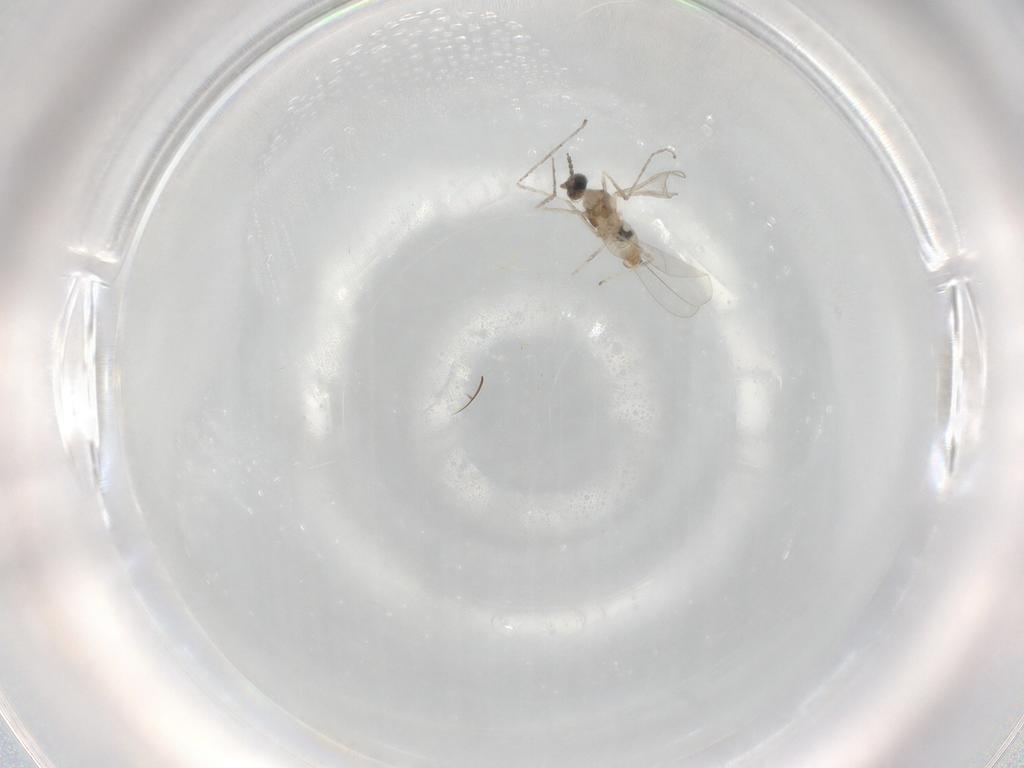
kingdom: Animalia
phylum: Arthropoda
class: Insecta
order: Diptera
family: Cecidomyiidae
